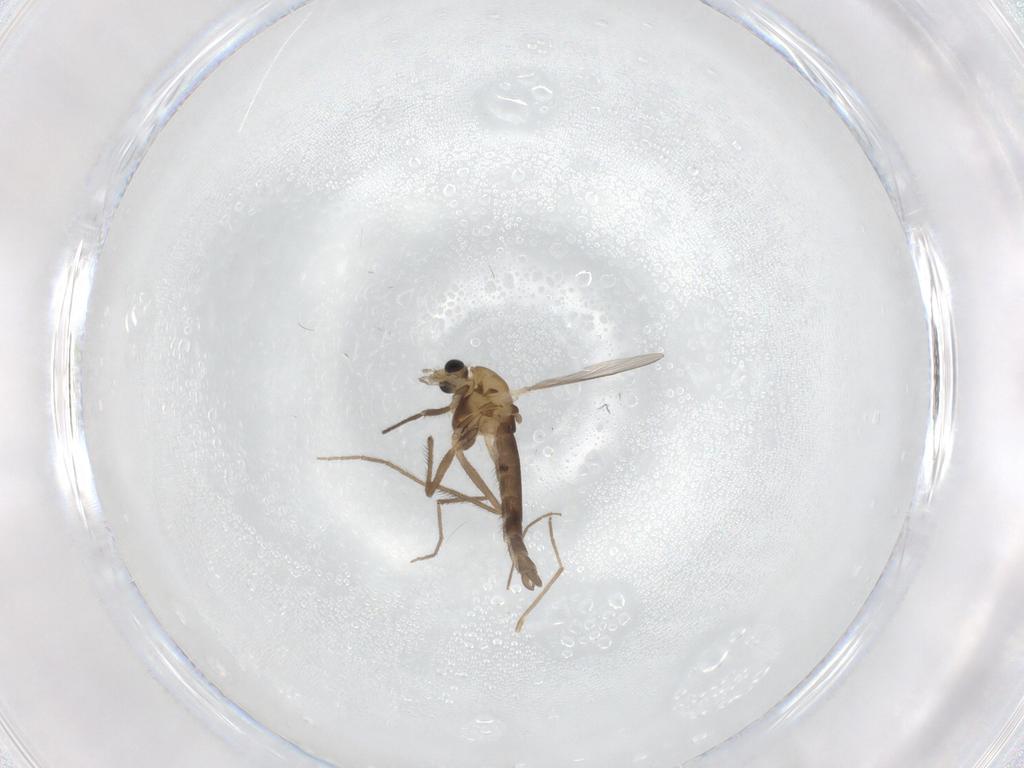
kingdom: Animalia
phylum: Arthropoda
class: Insecta
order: Diptera
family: Chironomidae
